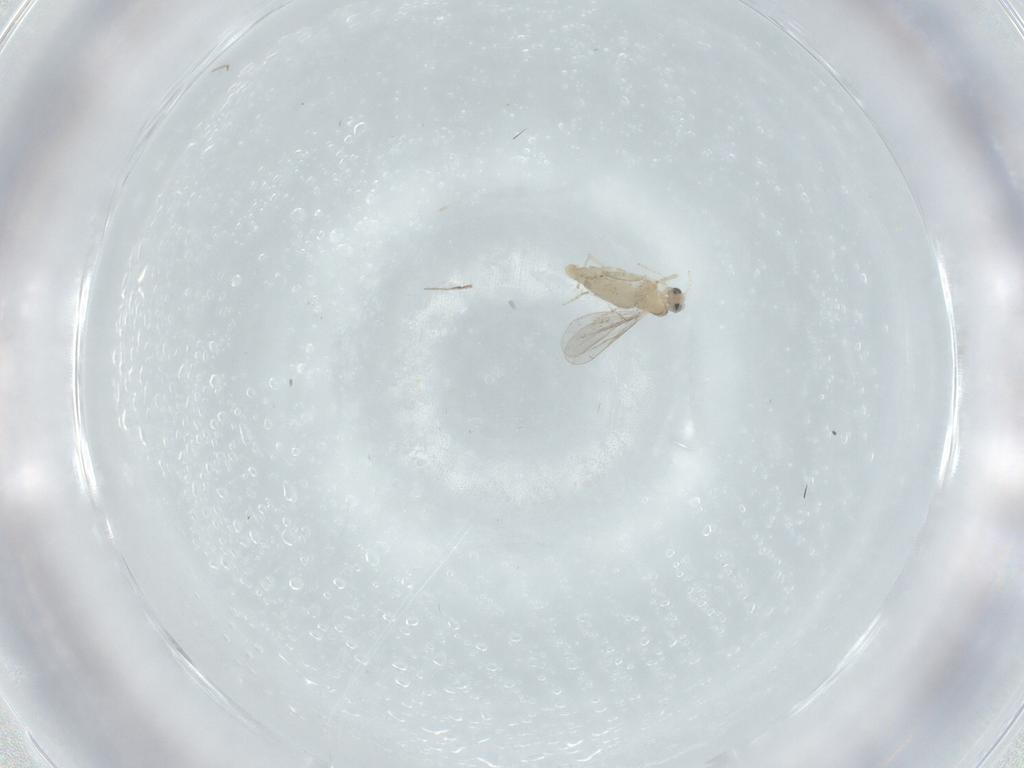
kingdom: Animalia
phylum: Arthropoda
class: Insecta
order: Diptera
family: Cecidomyiidae
